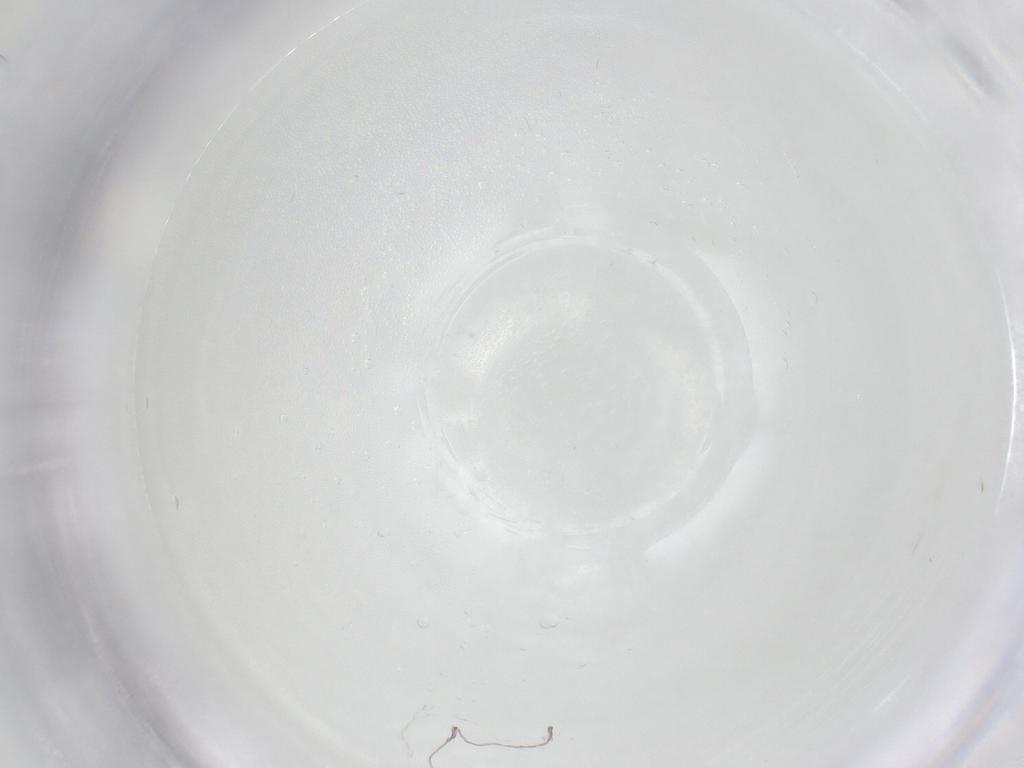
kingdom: Animalia
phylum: Arthropoda
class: Insecta
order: Diptera
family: Cecidomyiidae
